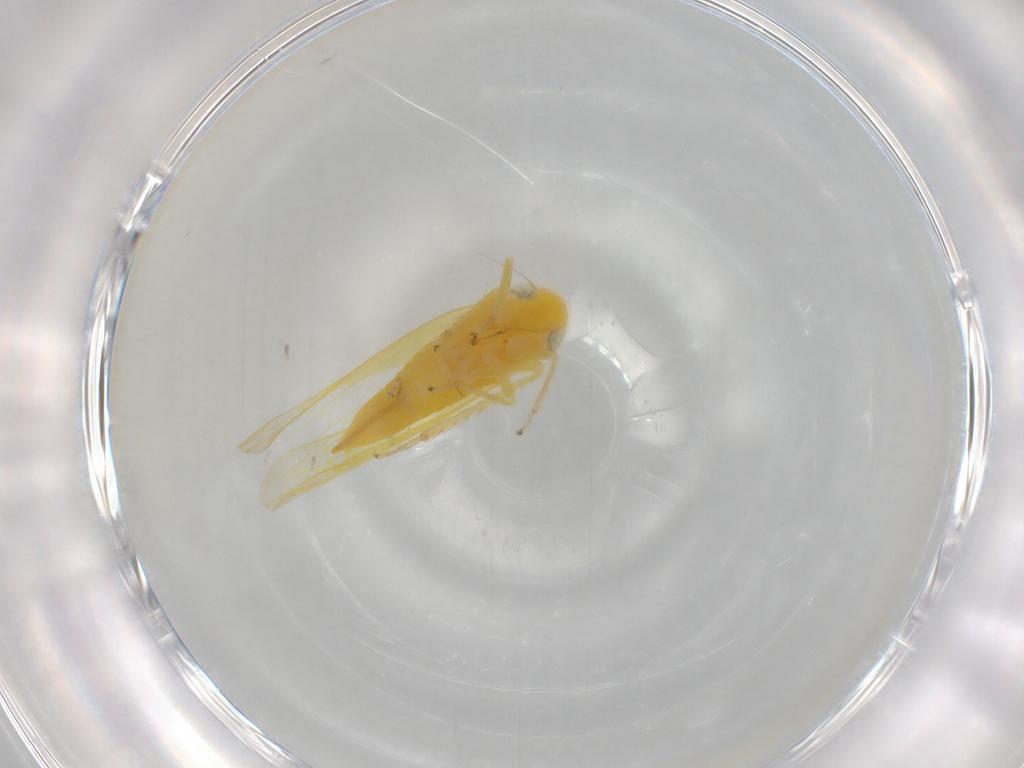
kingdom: Animalia
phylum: Arthropoda
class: Insecta
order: Hemiptera
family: Cicadellidae
